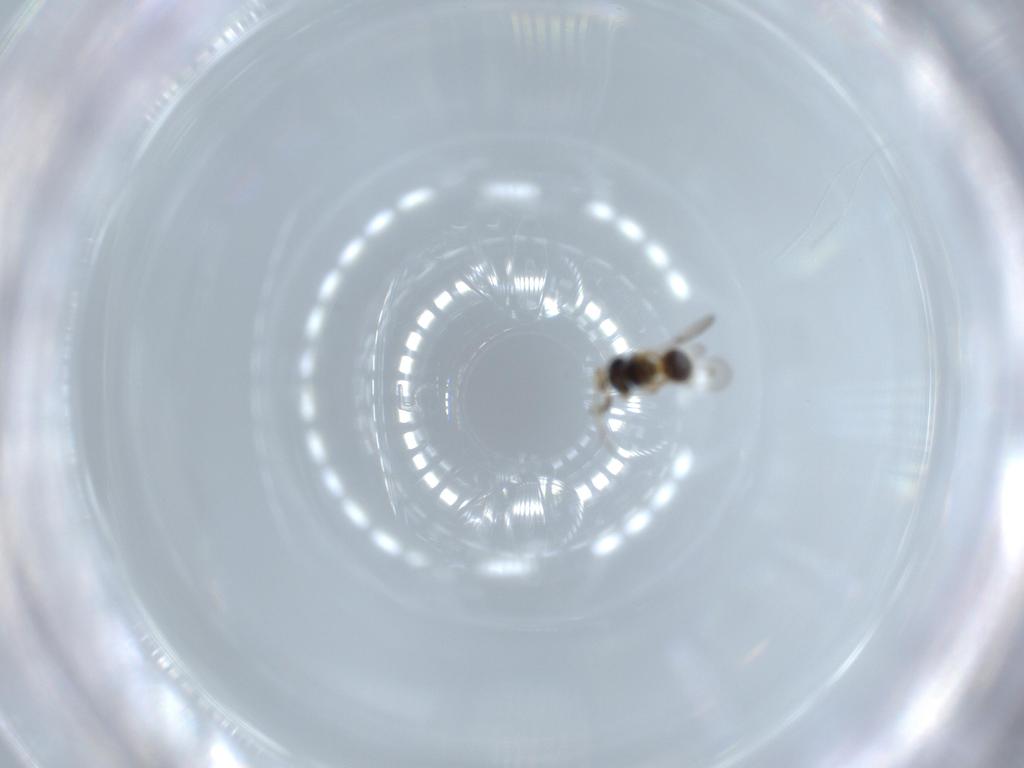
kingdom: Animalia
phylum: Arthropoda
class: Insecta
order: Hymenoptera
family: Scelionidae
